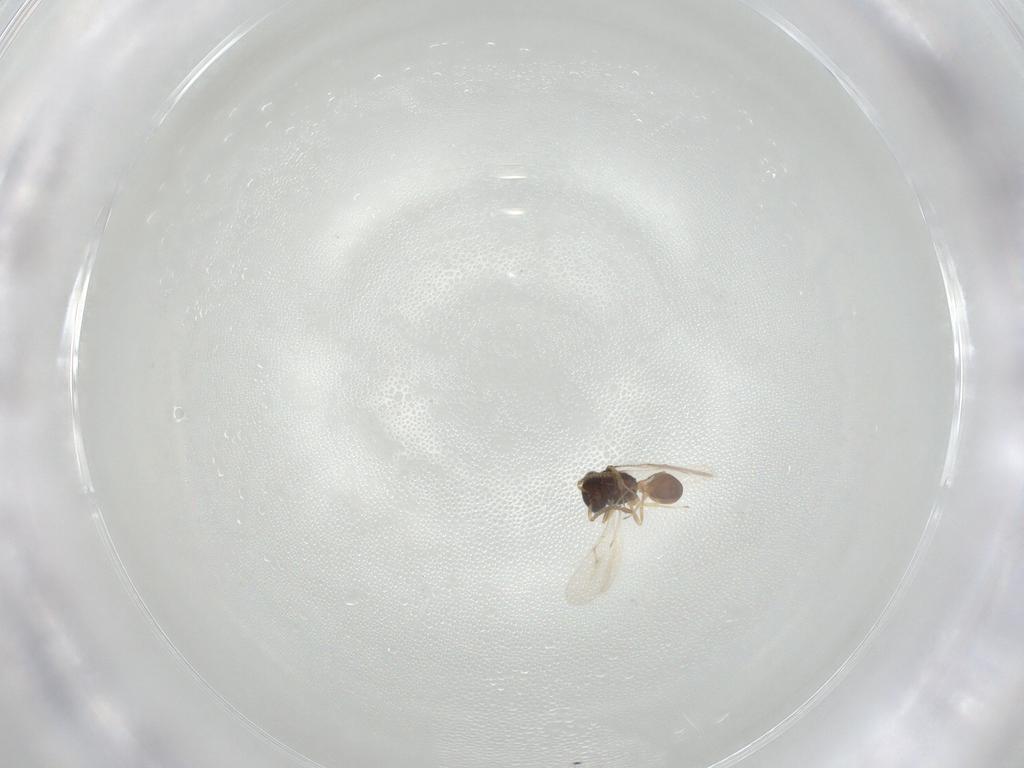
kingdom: Animalia
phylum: Arthropoda
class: Insecta
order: Hymenoptera
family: Scelionidae
